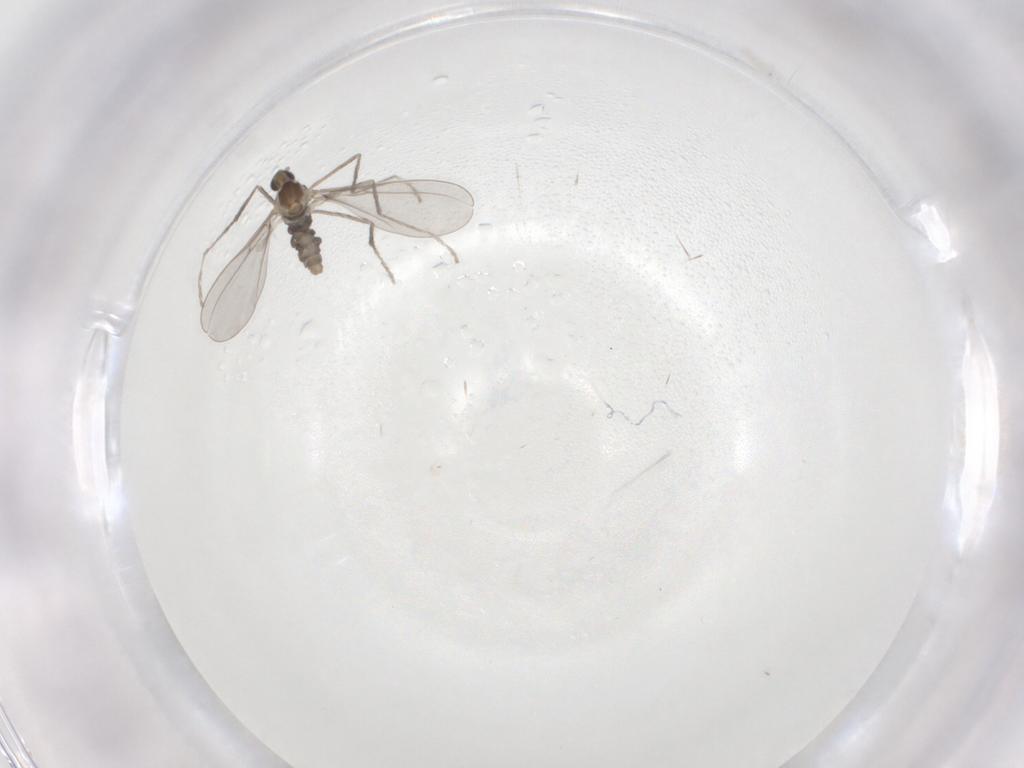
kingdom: Animalia
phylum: Arthropoda
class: Insecta
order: Diptera
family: Cecidomyiidae
